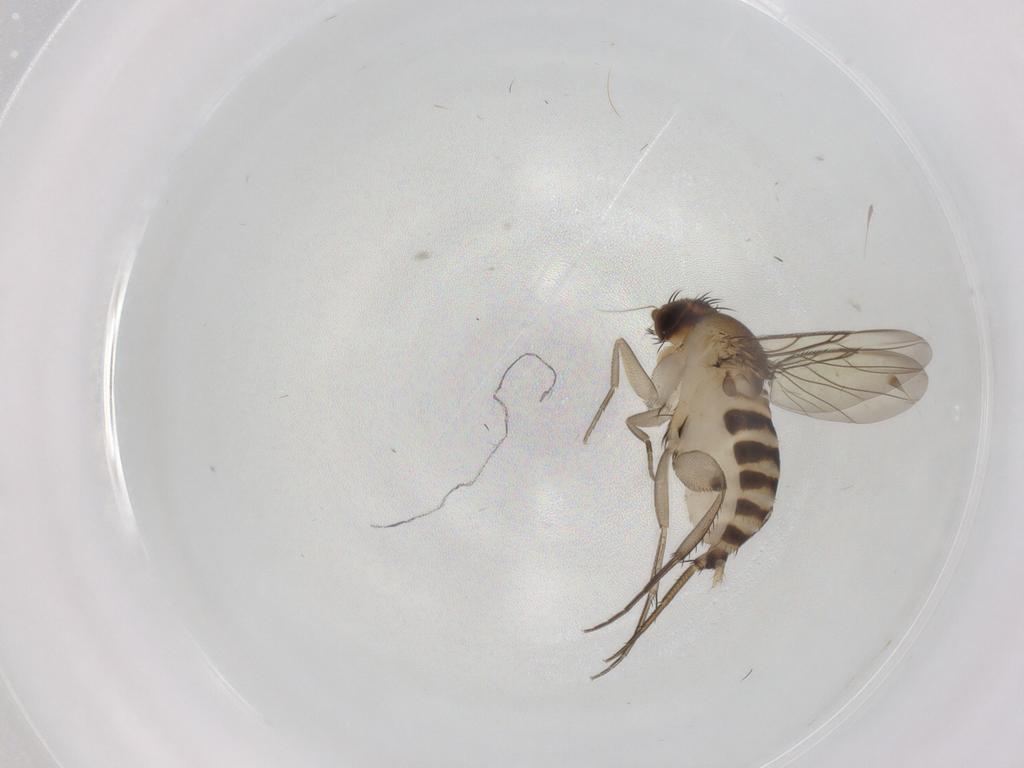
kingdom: Animalia
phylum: Arthropoda
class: Insecta
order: Diptera
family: Phoridae
